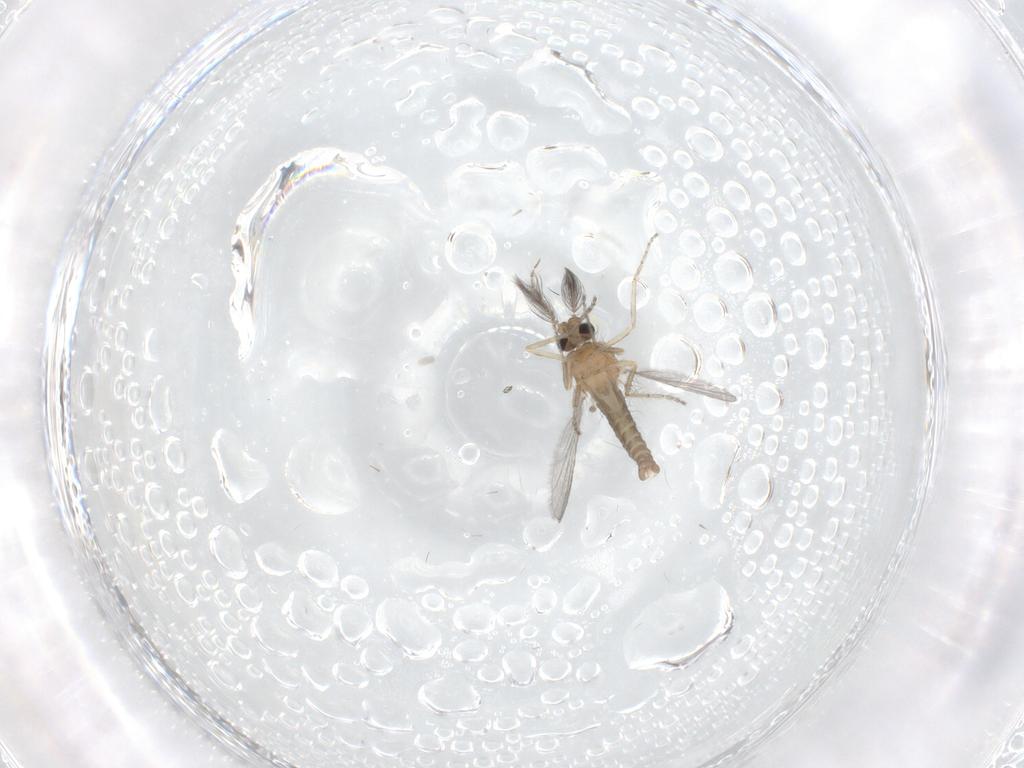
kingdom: Animalia
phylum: Arthropoda
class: Insecta
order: Diptera
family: Ceratopogonidae
